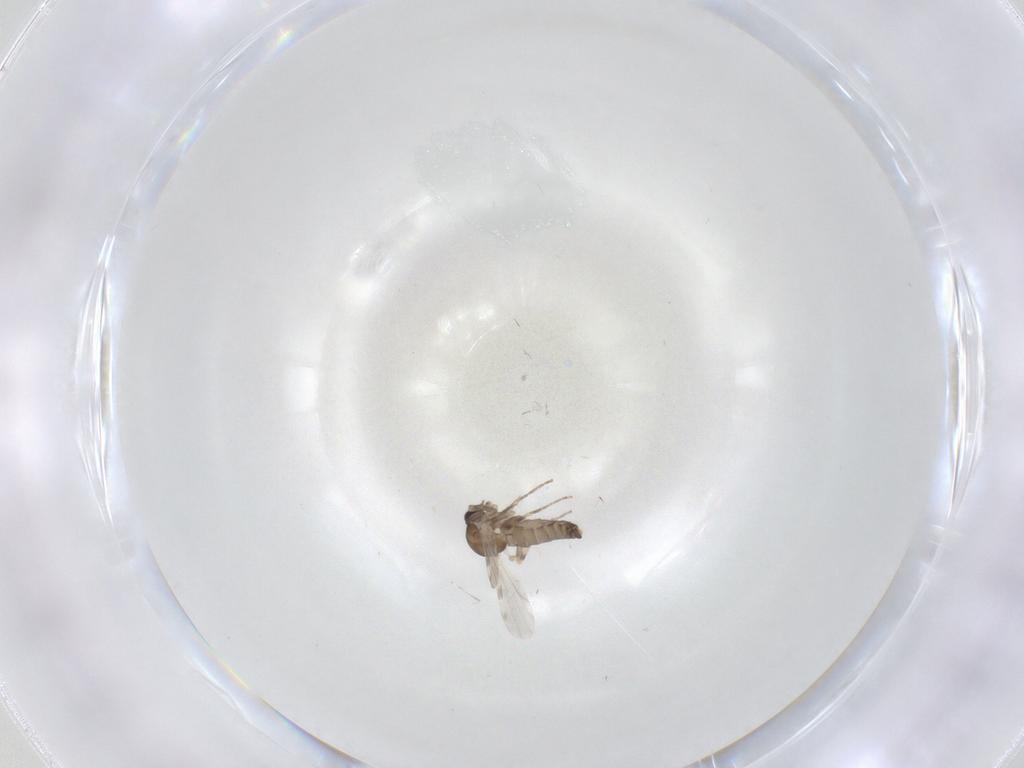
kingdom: Animalia
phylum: Arthropoda
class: Insecta
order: Diptera
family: Ceratopogonidae
